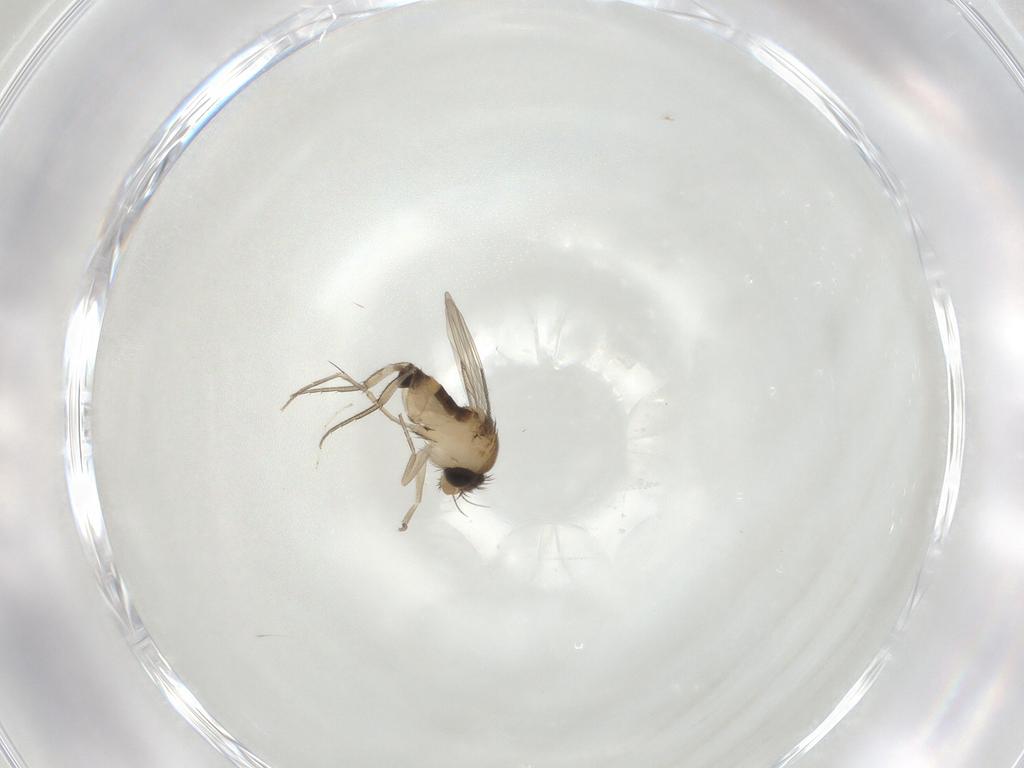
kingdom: Animalia
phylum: Arthropoda
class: Insecta
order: Diptera
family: Phoridae
